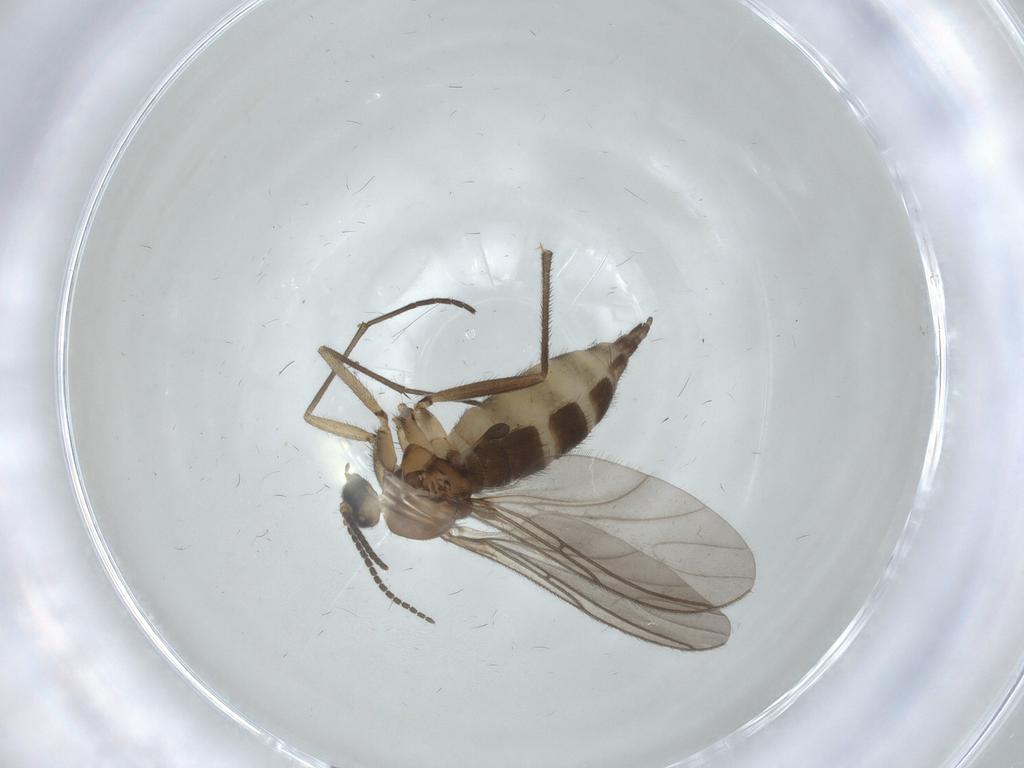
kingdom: Animalia
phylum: Arthropoda
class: Insecta
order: Diptera
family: Sciaridae
